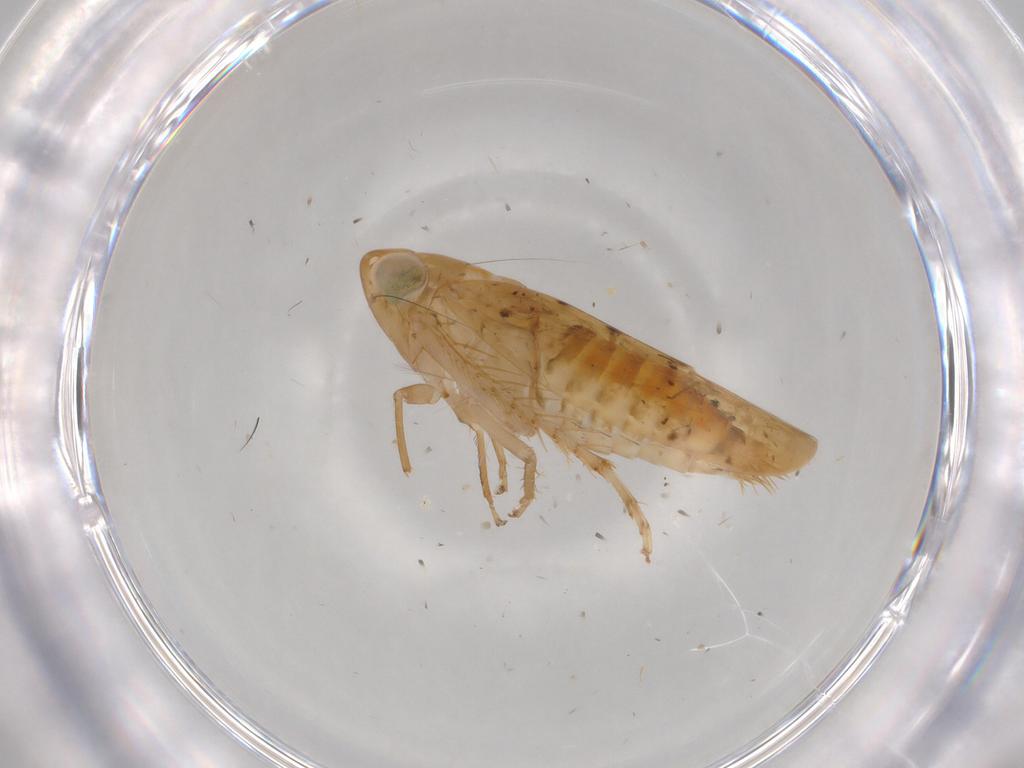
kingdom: Animalia
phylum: Arthropoda
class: Insecta
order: Hemiptera
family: Cicadellidae
